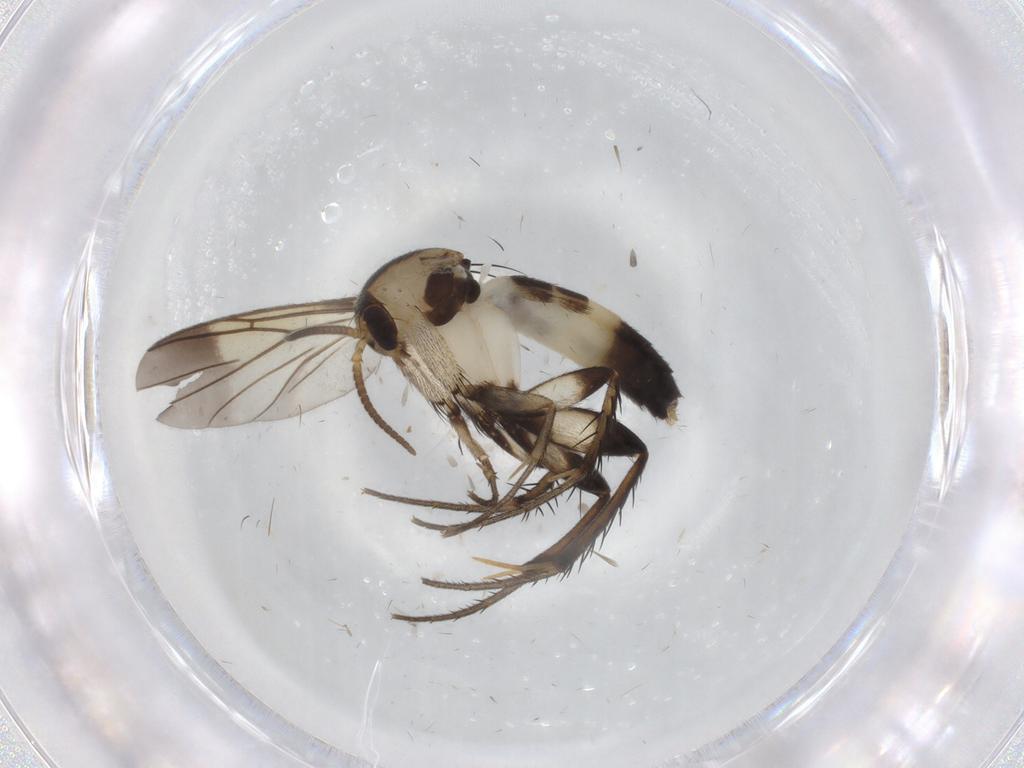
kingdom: Animalia
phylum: Arthropoda
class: Insecta
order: Diptera
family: Mycetophilidae
